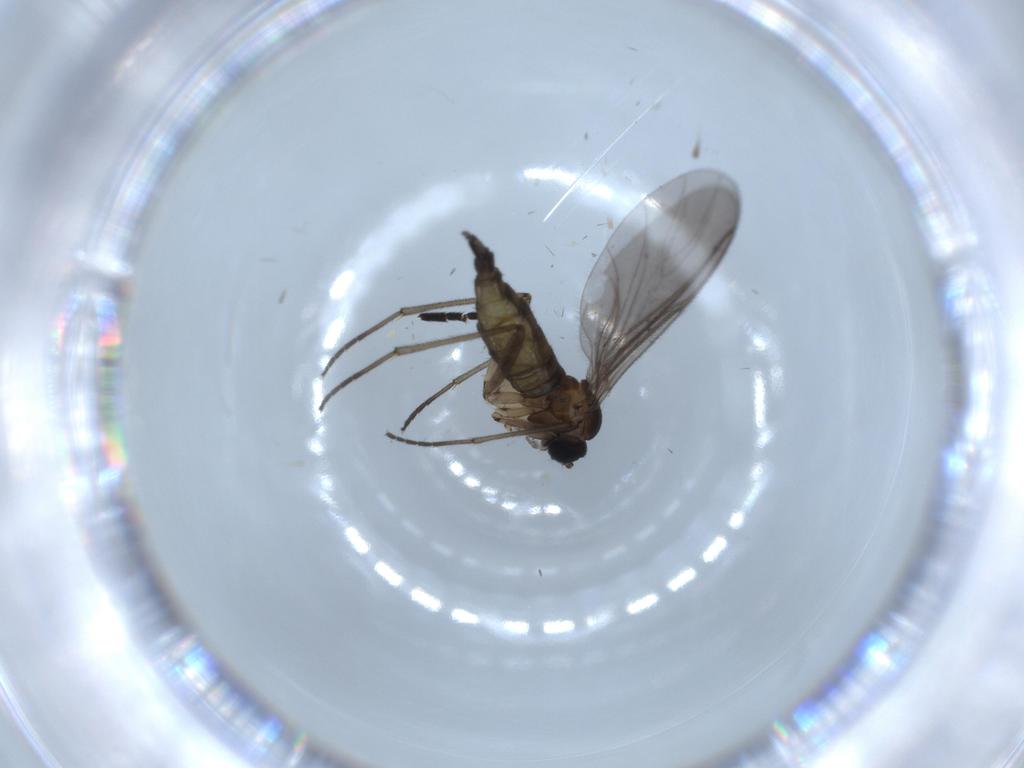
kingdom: Animalia
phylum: Arthropoda
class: Insecta
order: Diptera
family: Sciaridae
